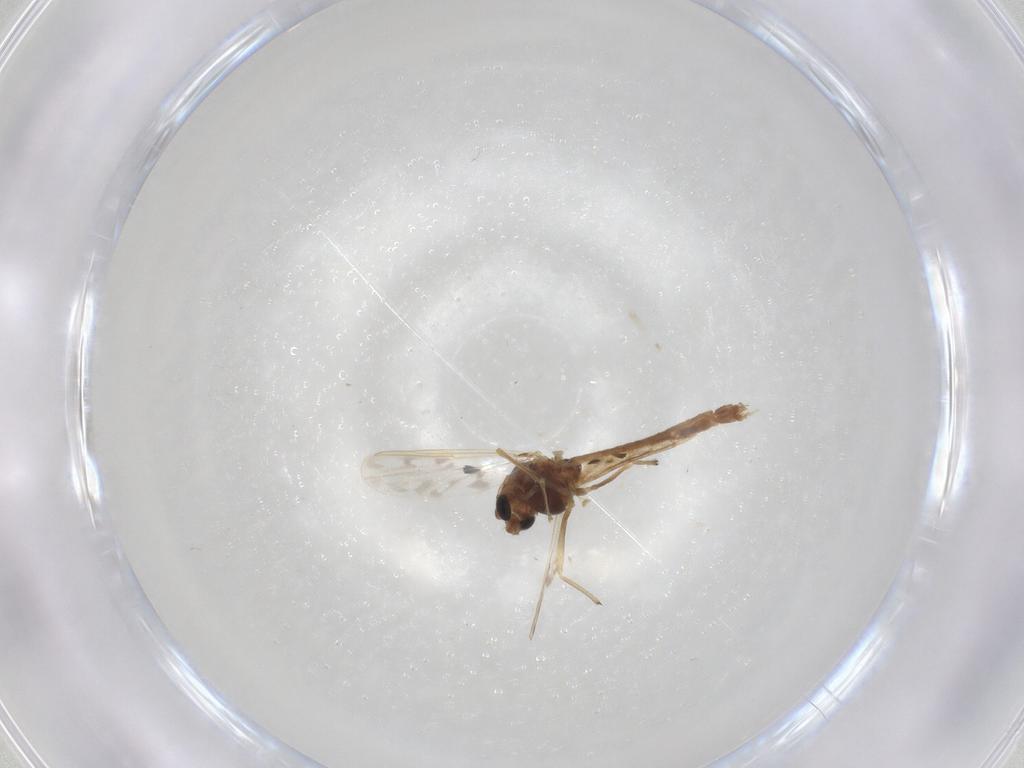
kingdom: Animalia
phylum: Arthropoda
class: Insecta
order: Diptera
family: Chironomidae
